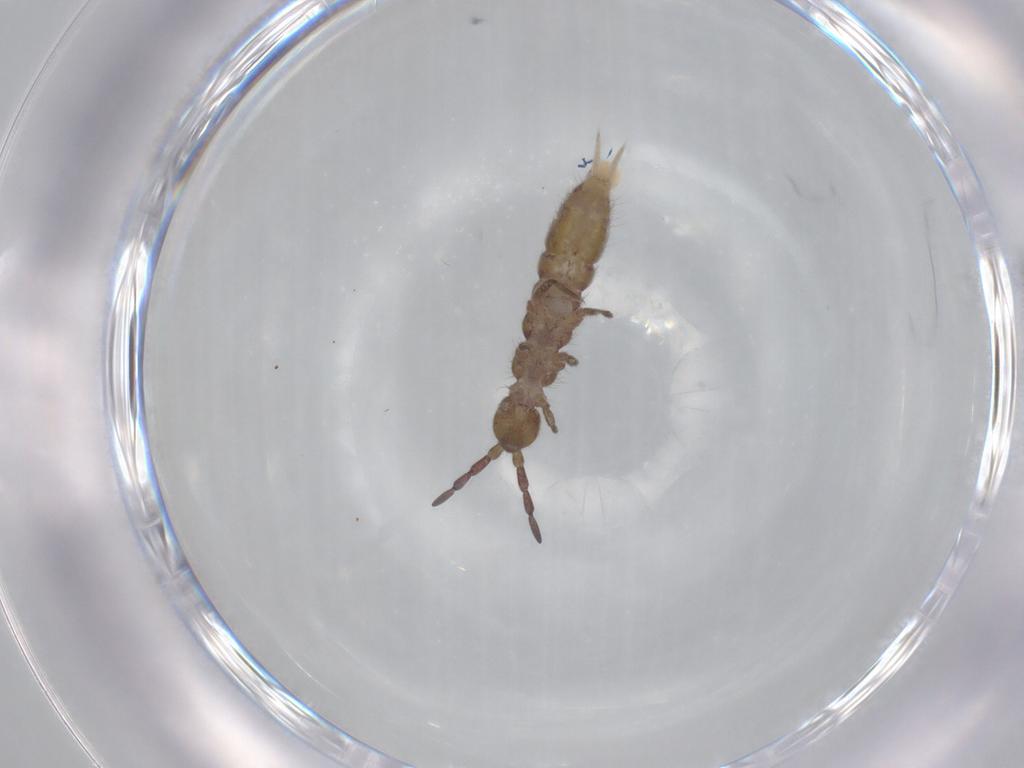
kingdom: Animalia
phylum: Arthropoda
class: Collembola
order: Entomobryomorpha
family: Isotomidae
